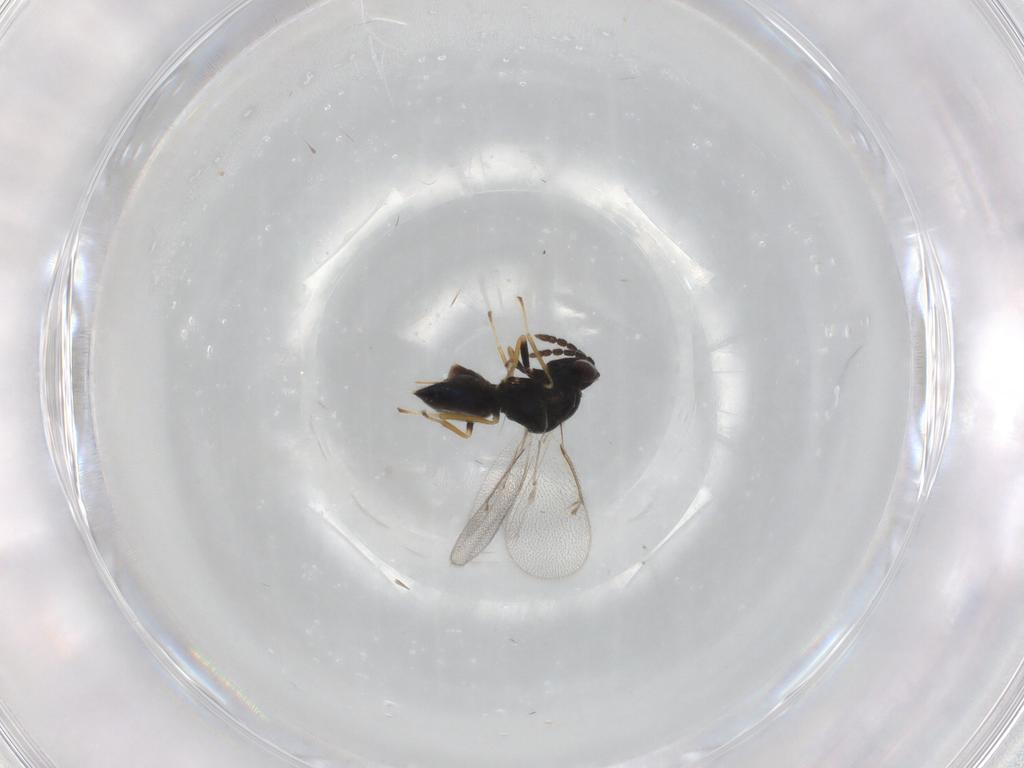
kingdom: Animalia
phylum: Arthropoda
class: Insecta
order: Hymenoptera
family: Eulophidae
